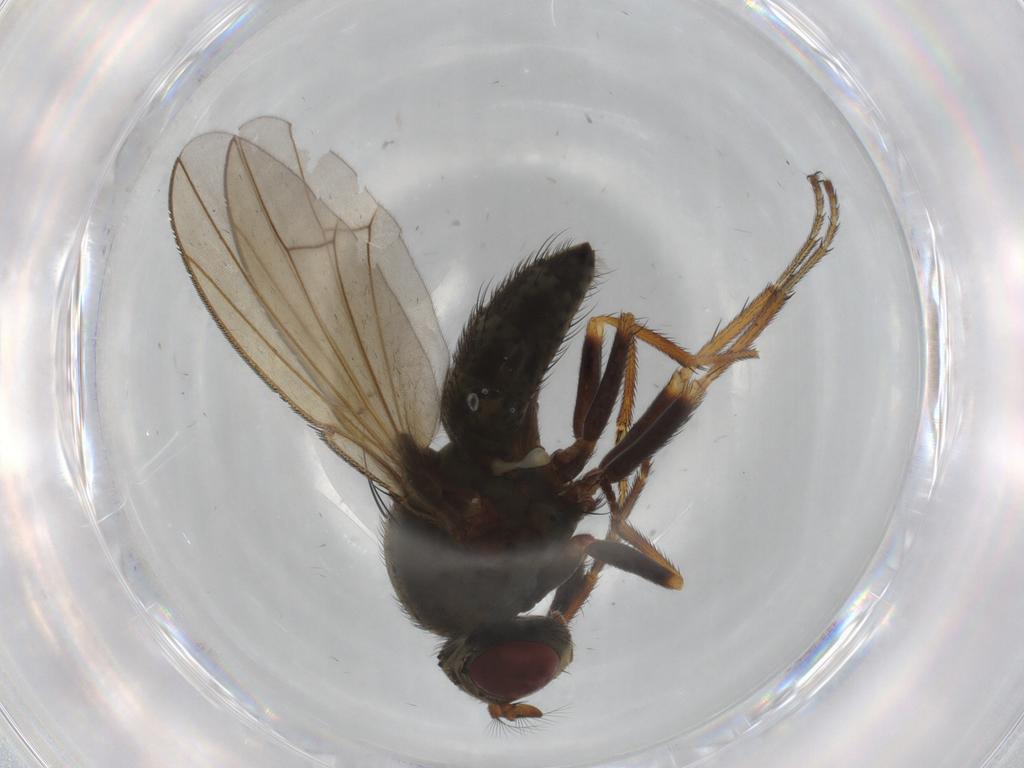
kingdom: Animalia
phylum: Arthropoda
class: Insecta
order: Diptera
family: Ephydridae
